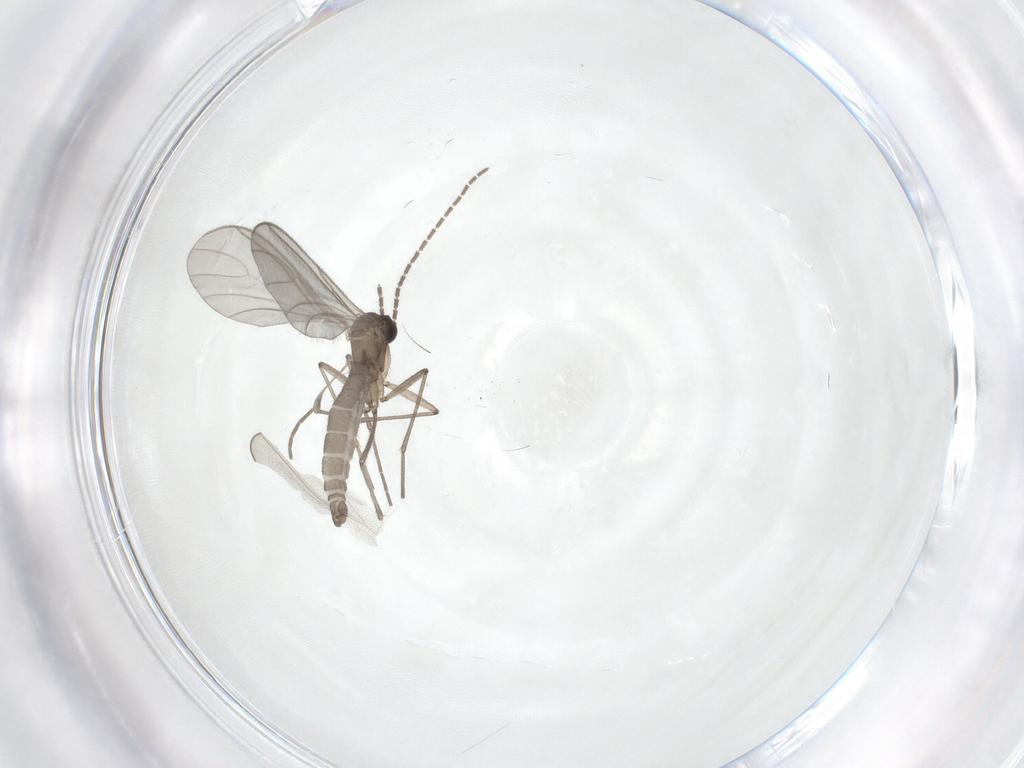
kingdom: Animalia
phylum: Arthropoda
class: Insecta
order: Diptera
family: Sciaridae
